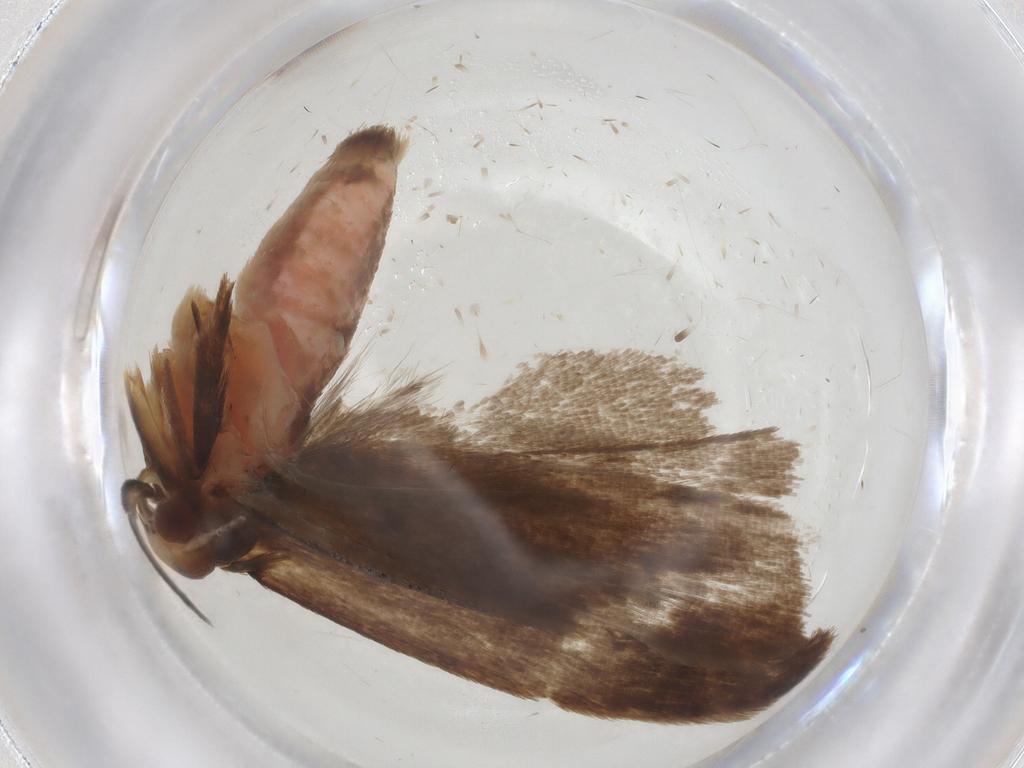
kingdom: Animalia
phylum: Arthropoda
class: Insecta
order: Lepidoptera
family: Gelechiidae
